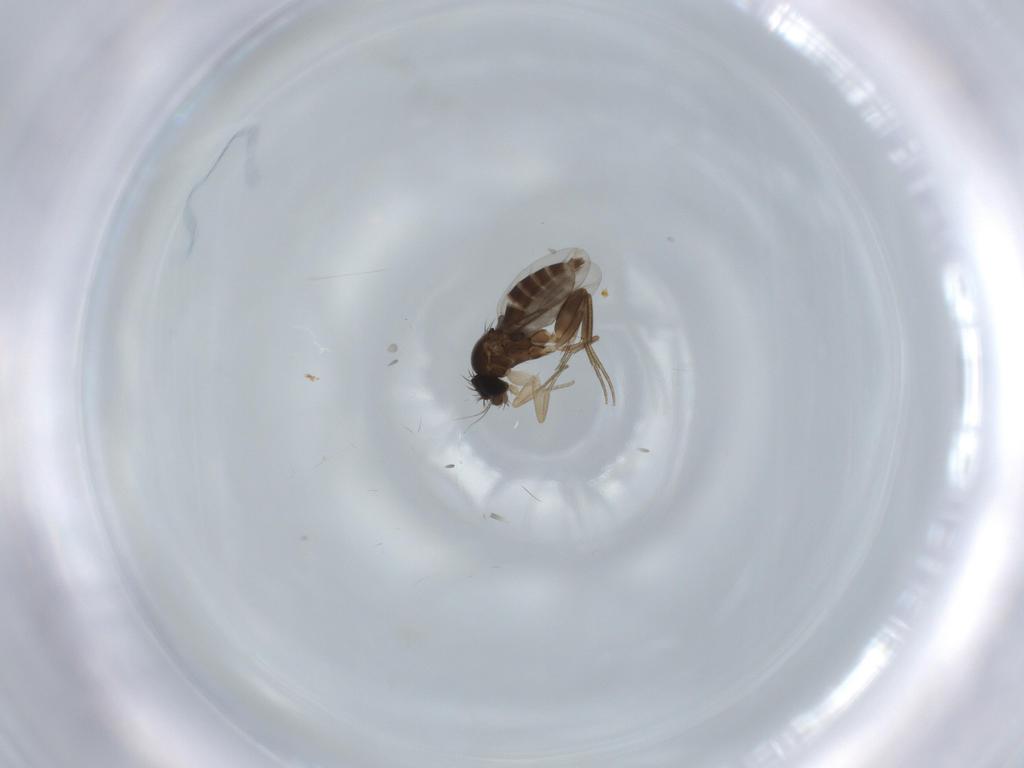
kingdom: Animalia
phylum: Arthropoda
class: Insecta
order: Diptera
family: Phoridae
